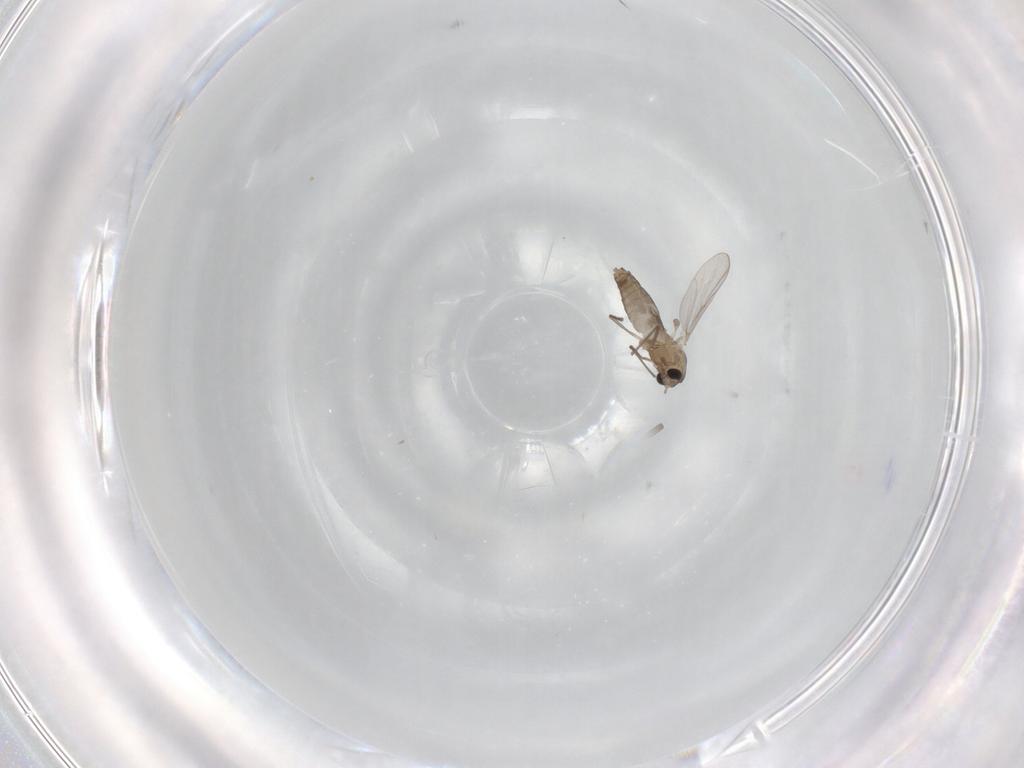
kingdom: Animalia
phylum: Arthropoda
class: Insecta
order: Diptera
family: Chironomidae
